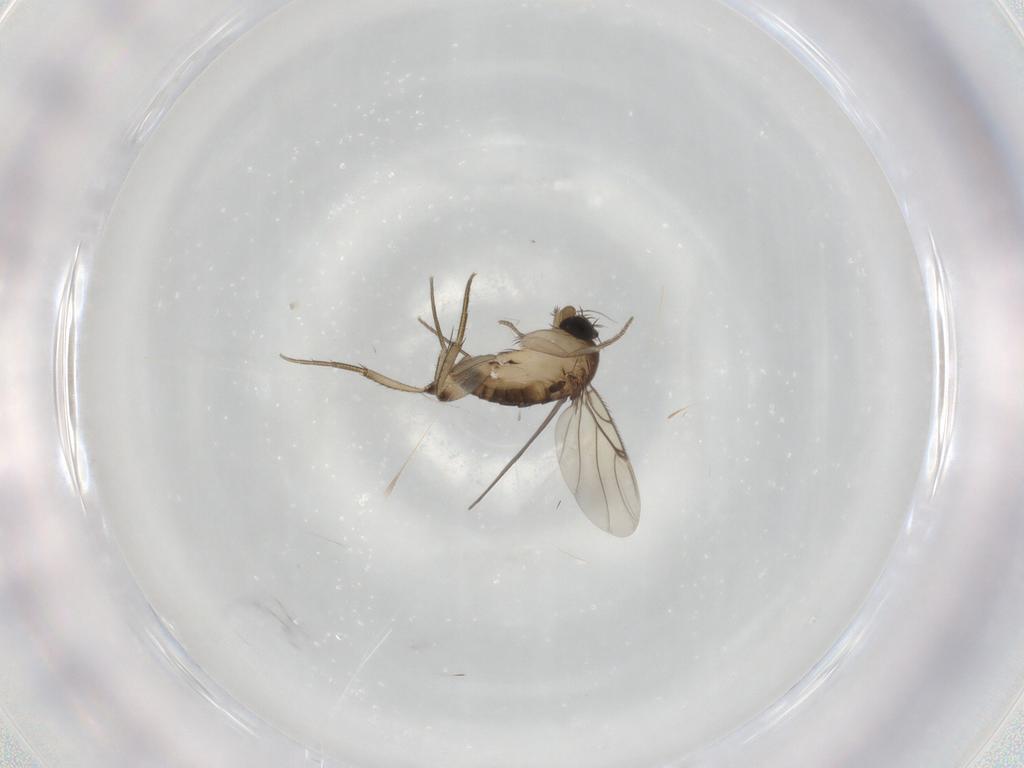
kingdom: Animalia
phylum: Arthropoda
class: Insecta
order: Diptera
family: Phoridae
